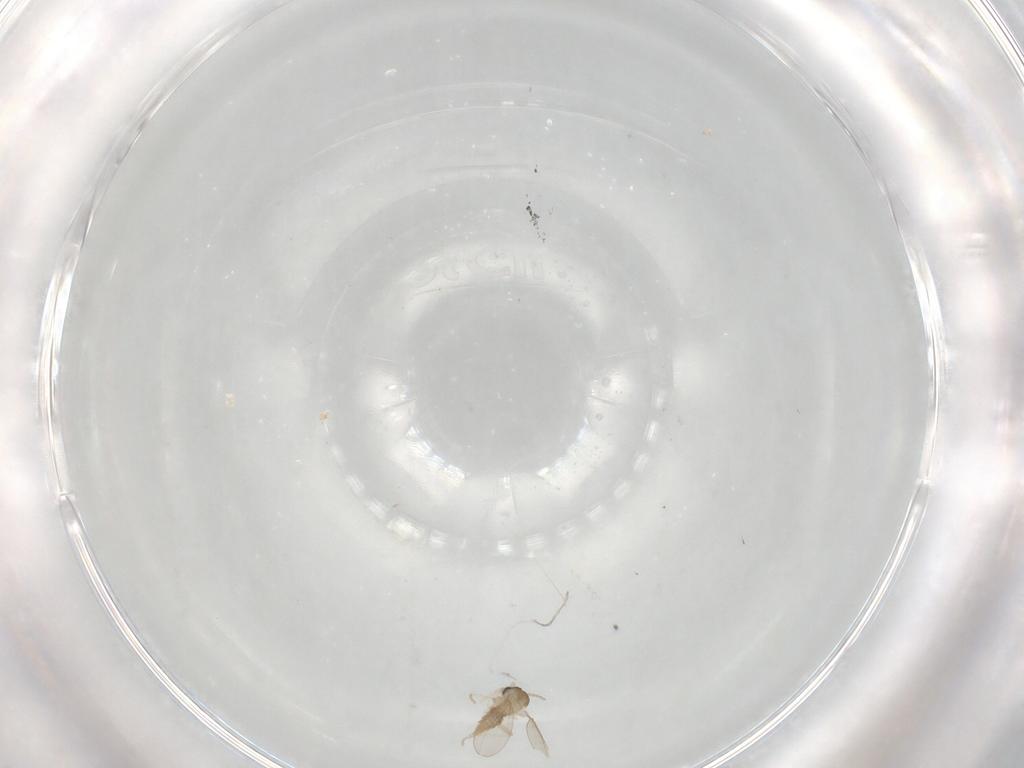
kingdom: Animalia
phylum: Arthropoda
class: Insecta
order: Diptera
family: Cecidomyiidae
